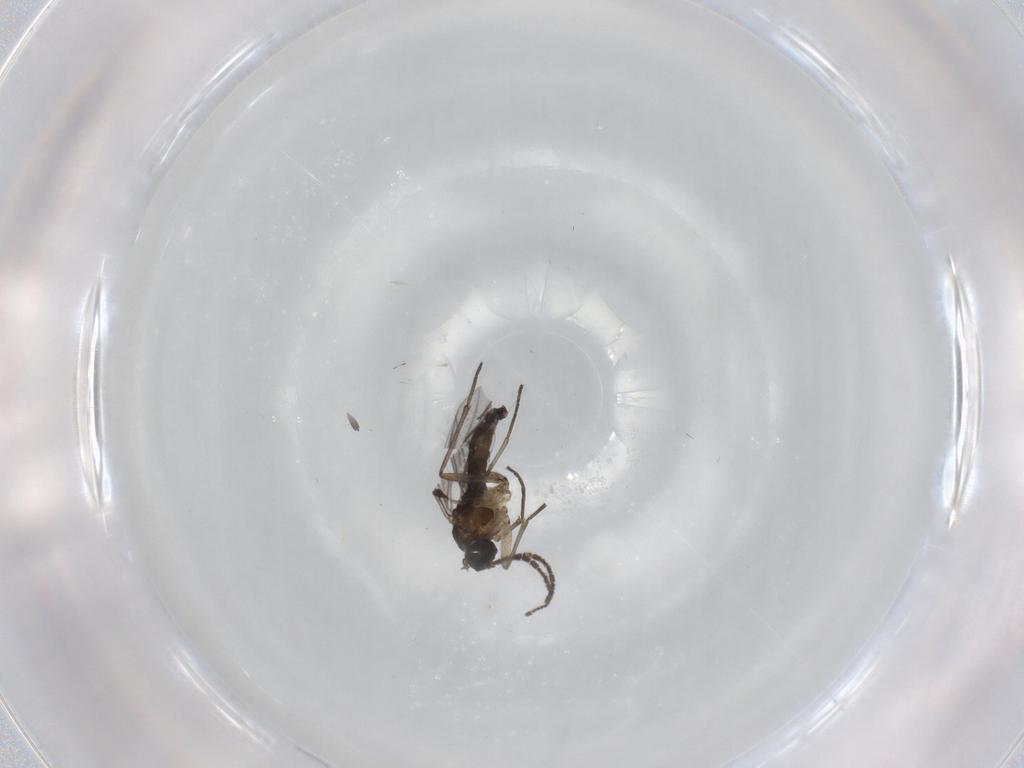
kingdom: Animalia
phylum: Arthropoda
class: Insecta
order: Diptera
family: Sciaridae
